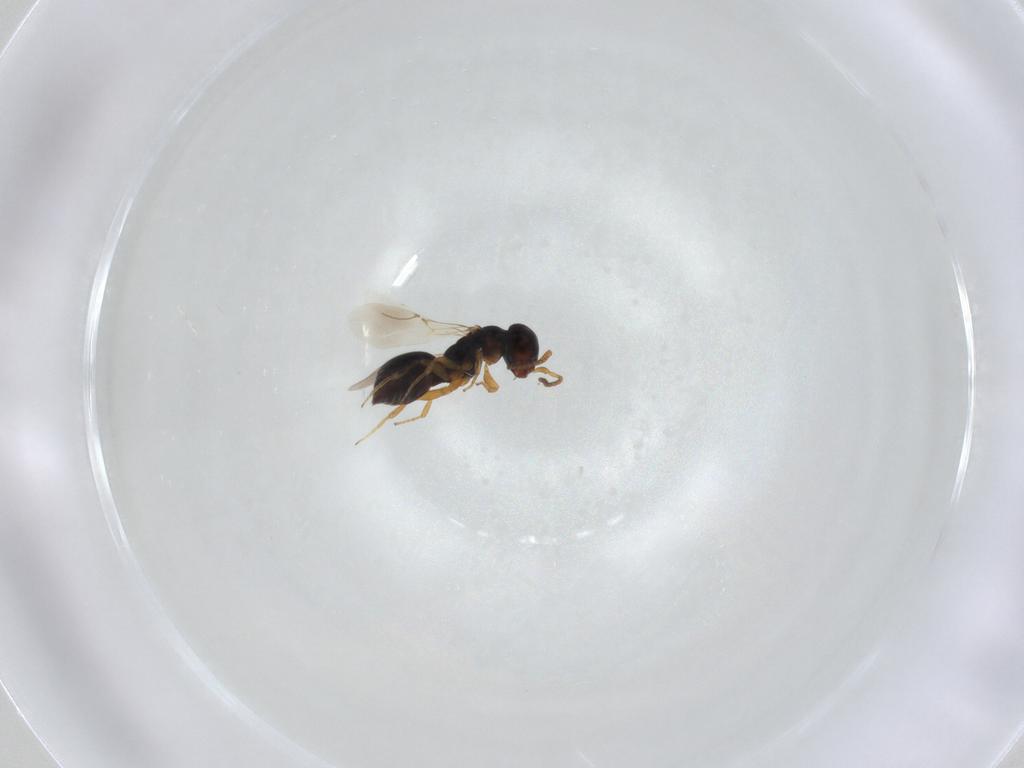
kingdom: Animalia
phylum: Arthropoda
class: Insecta
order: Hymenoptera
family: Bethylidae
